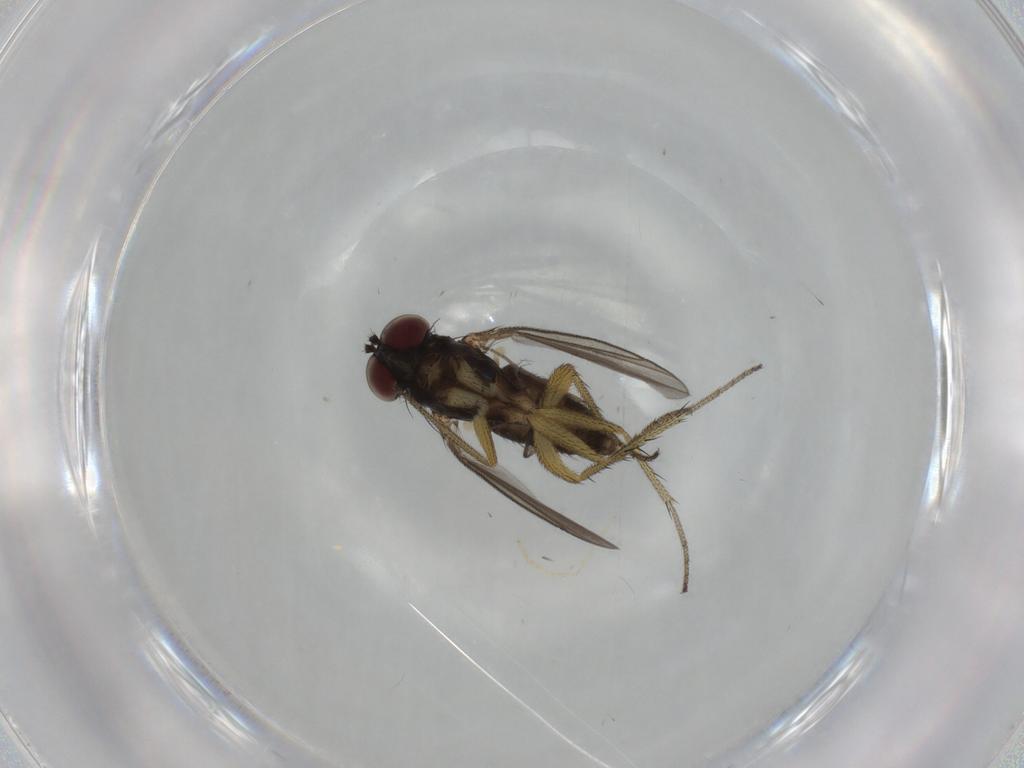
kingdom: Animalia
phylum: Arthropoda
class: Insecta
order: Diptera
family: Sciaridae
